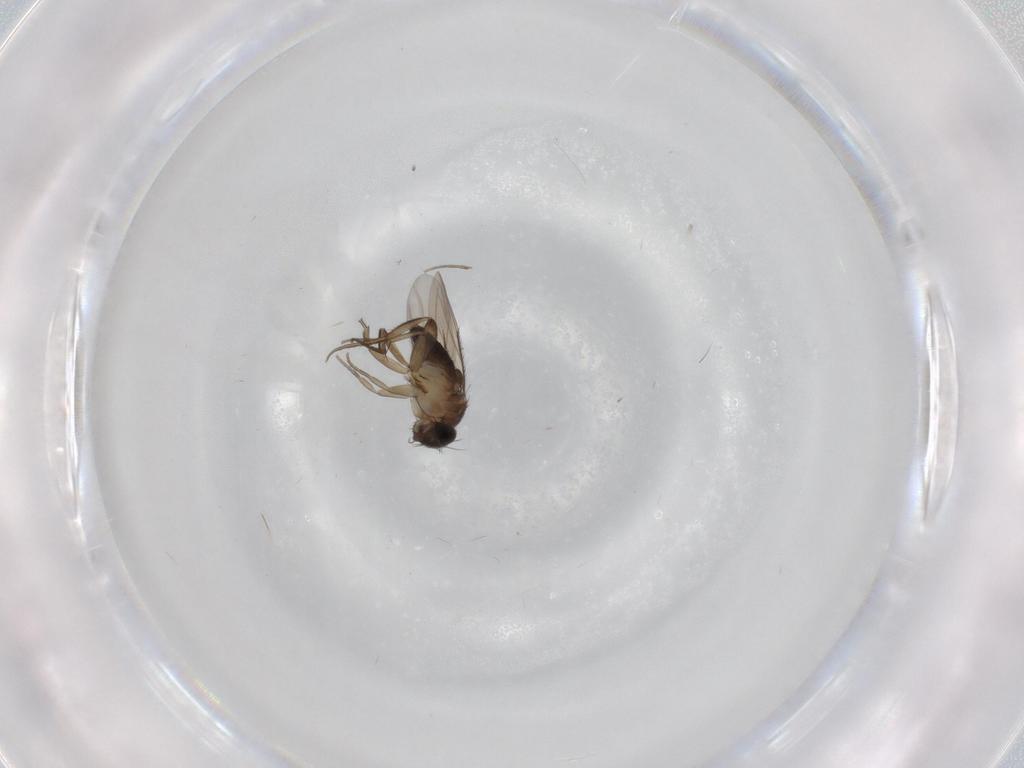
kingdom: Animalia
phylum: Arthropoda
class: Insecta
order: Diptera
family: Phoridae
